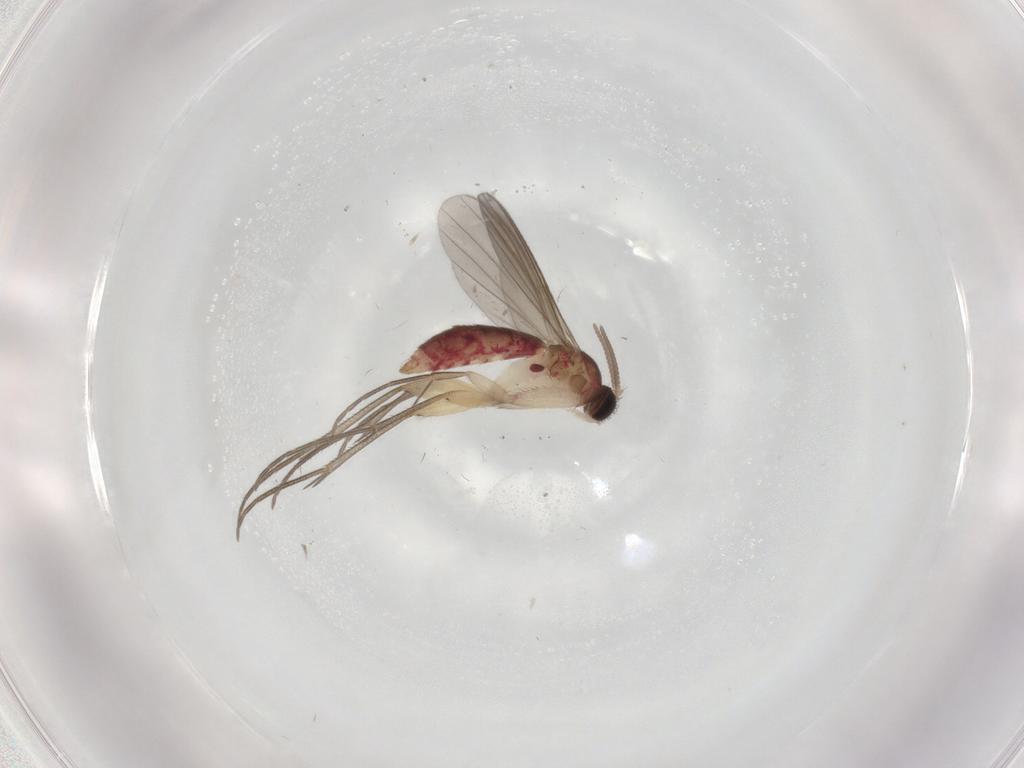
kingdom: Animalia
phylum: Arthropoda
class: Insecta
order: Diptera
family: Mycetophilidae
